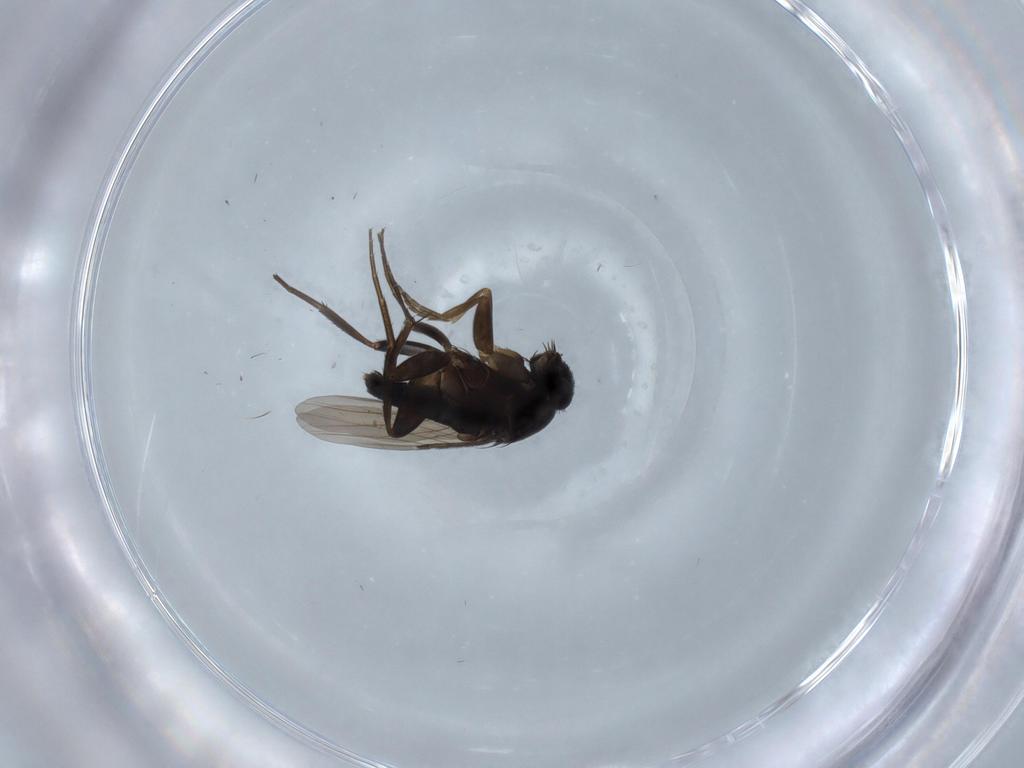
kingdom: Animalia
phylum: Arthropoda
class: Insecta
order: Diptera
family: Phoridae
